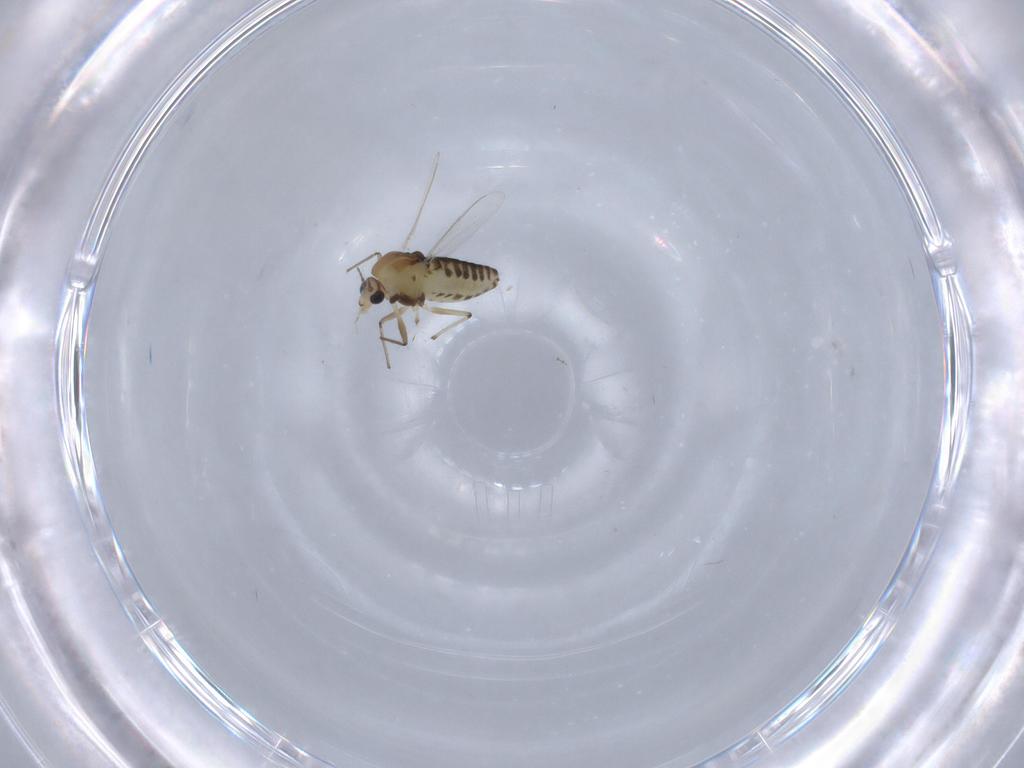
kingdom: Animalia
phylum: Arthropoda
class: Insecta
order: Diptera
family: Chironomidae
